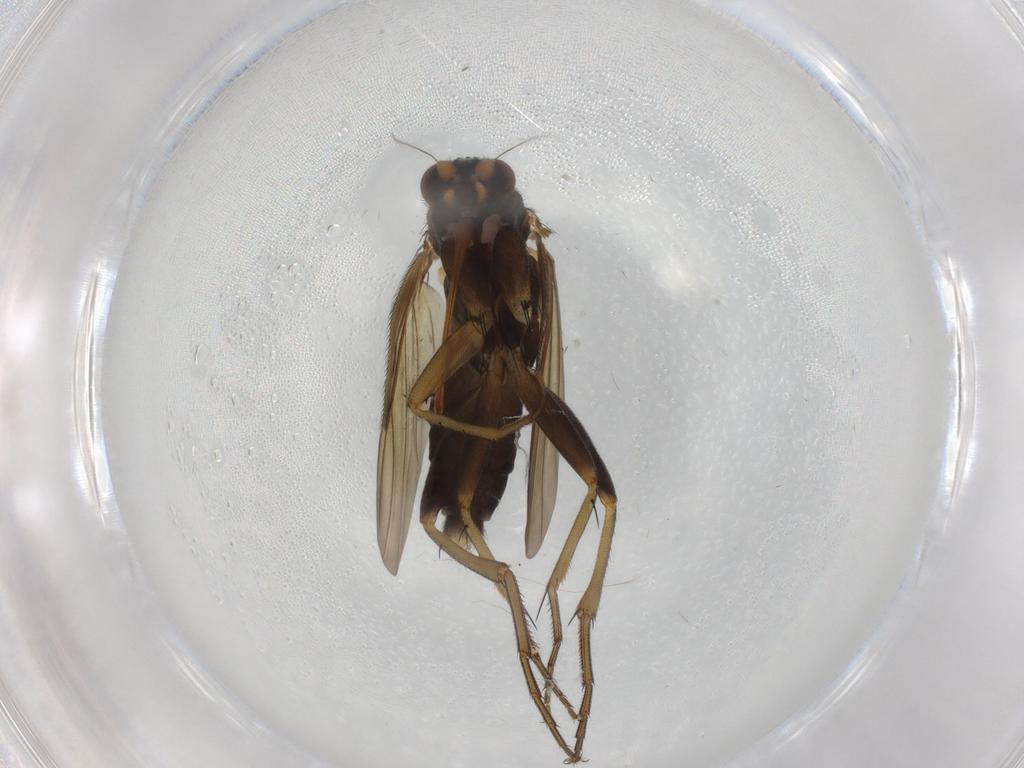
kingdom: Animalia
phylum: Arthropoda
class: Insecta
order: Diptera
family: Phoridae
